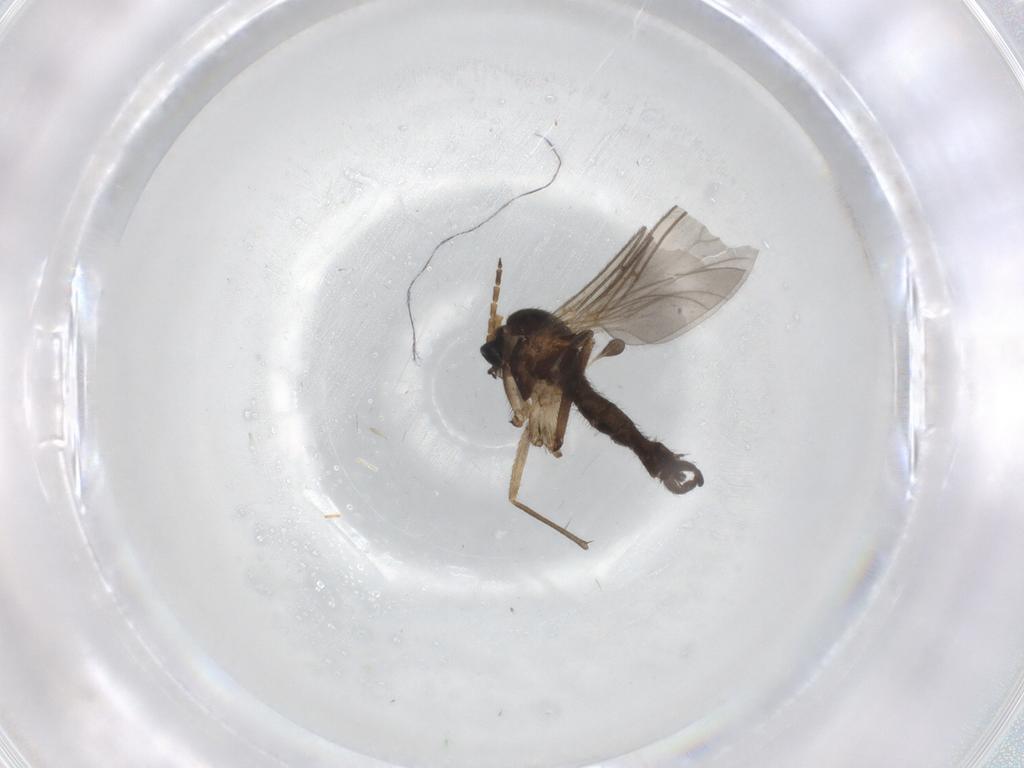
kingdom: Animalia
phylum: Arthropoda
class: Insecta
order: Diptera
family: Sciaridae
